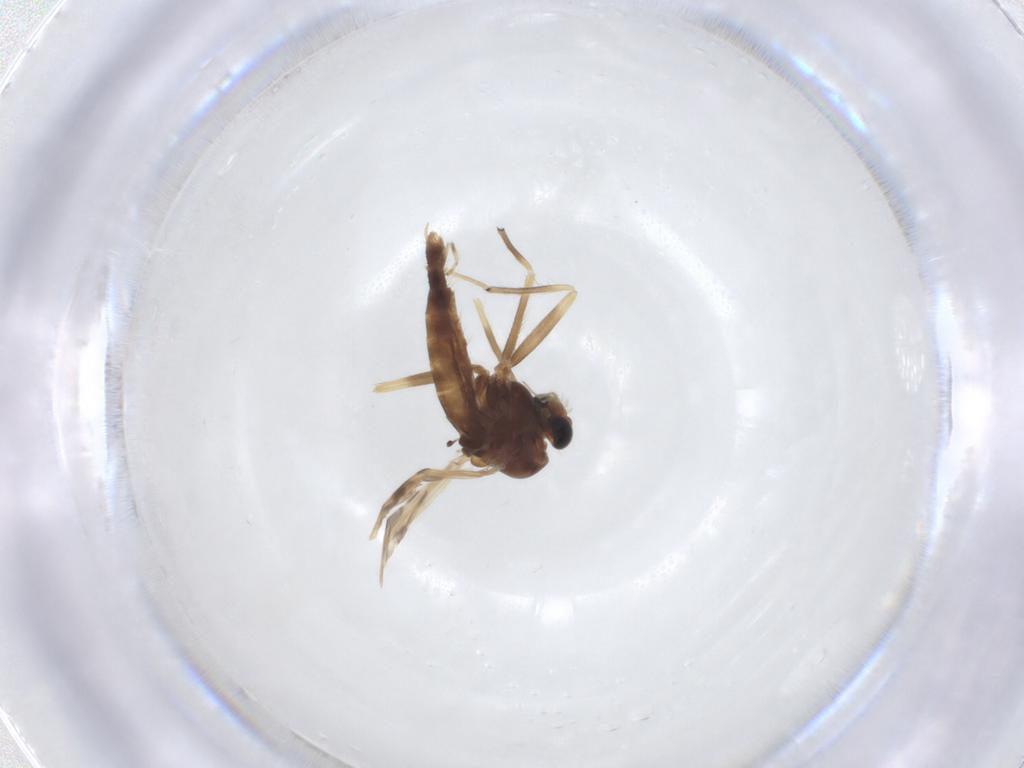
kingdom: Animalia
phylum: Arthropoda
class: Insecta
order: Diptera
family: Chironomidae
